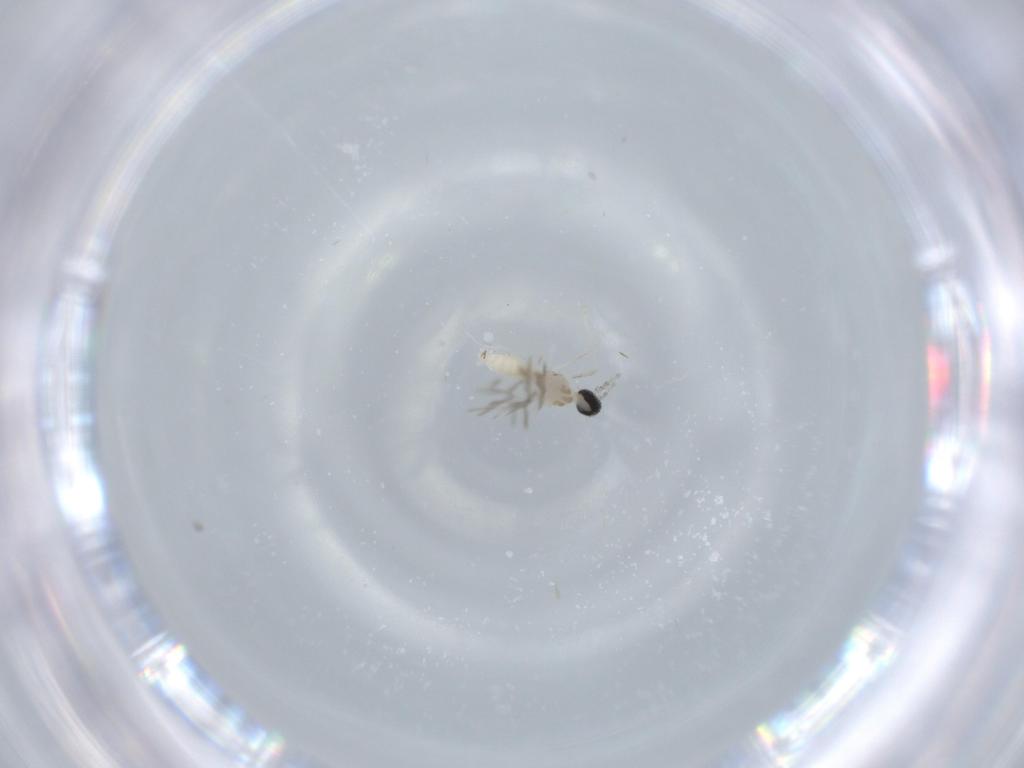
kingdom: Animalia
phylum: Arthropoda
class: Insecta
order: Diptera
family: Cecidomyiidae
